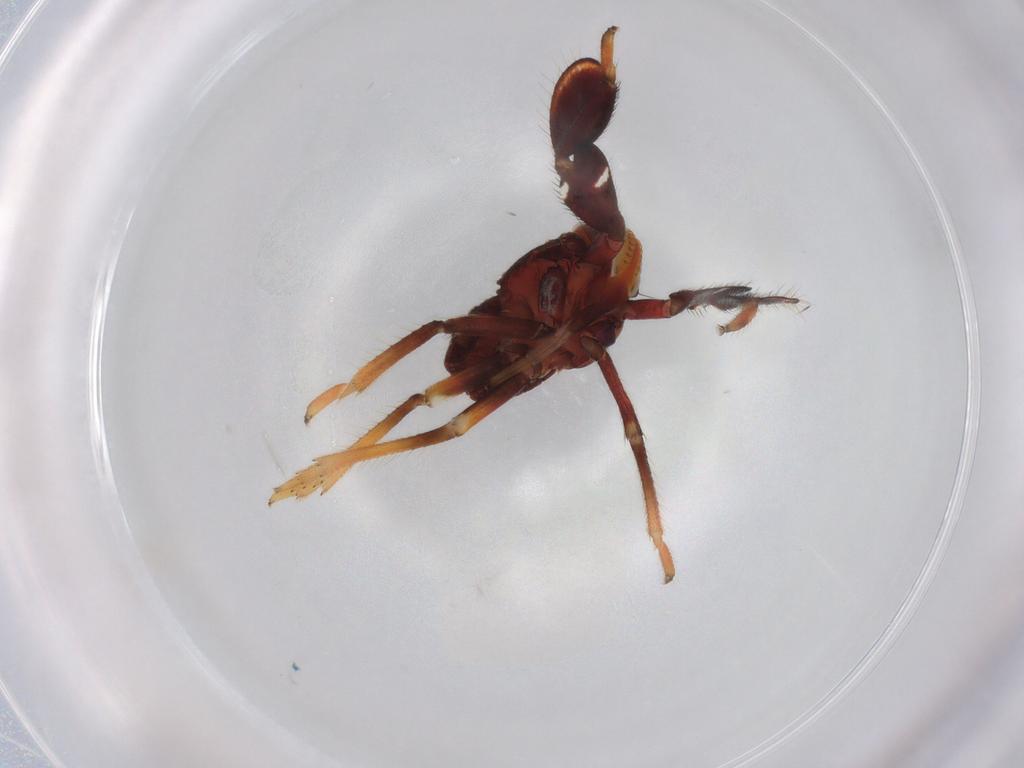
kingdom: Animalia
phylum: Arthropoda
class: Insecta
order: Hemiptera
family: Caliscelidae
